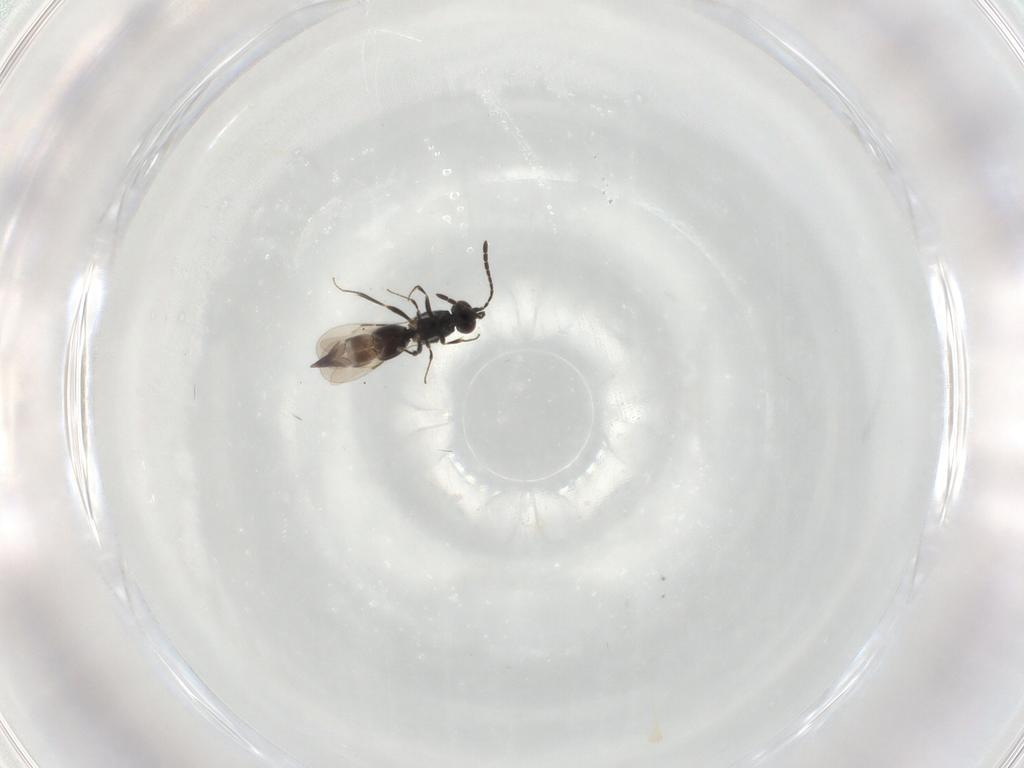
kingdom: Animalia
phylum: Arthropoda
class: Insecta
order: Hymenoptera
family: Ceraphronidae
